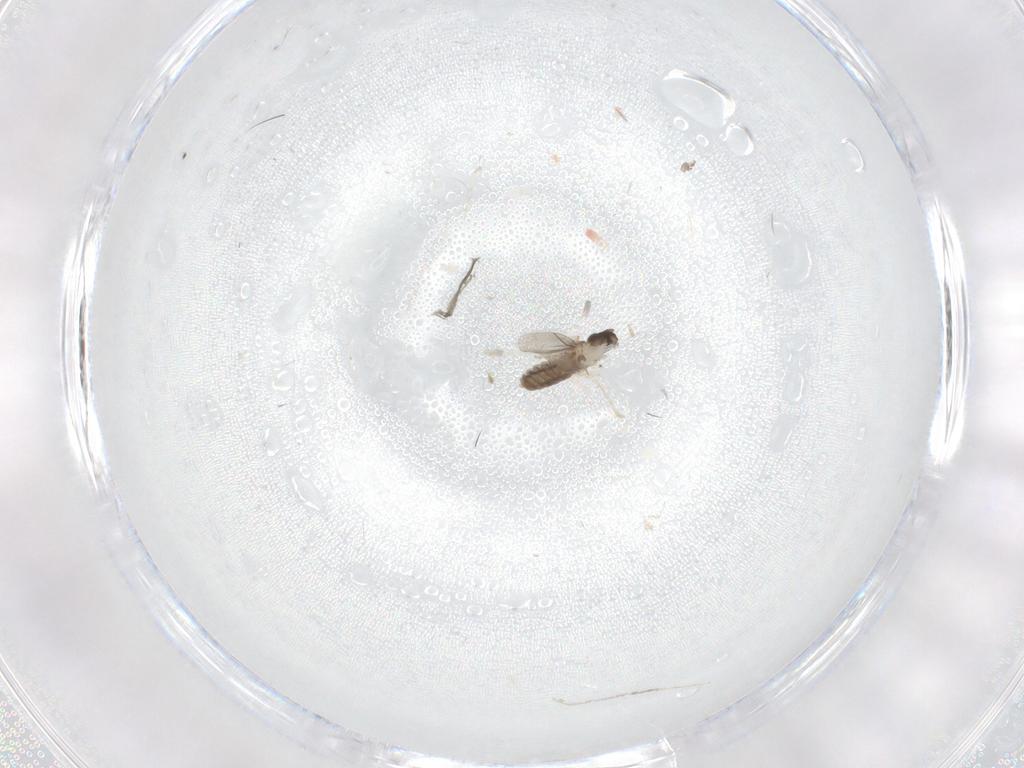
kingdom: Animalia
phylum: Arthropoda
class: Insecta
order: Diptera
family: Cecidomyiidae
